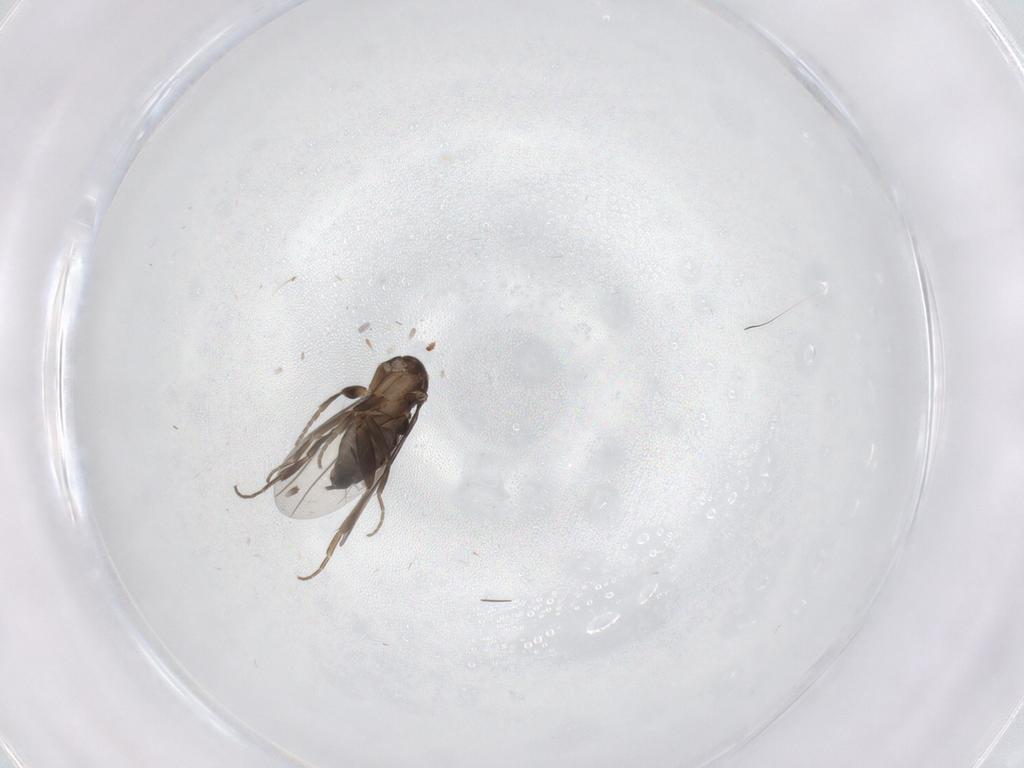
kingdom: Animalia
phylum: Arthropoda
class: Insecta
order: Diptera
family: Phoridae
